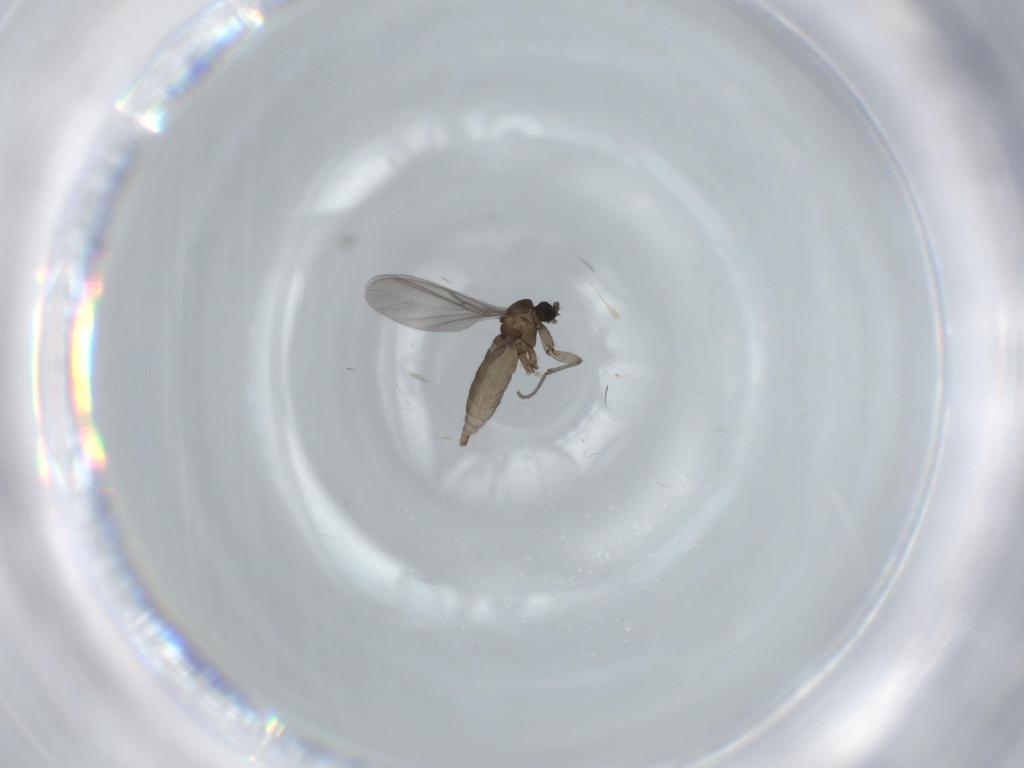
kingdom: Animalia
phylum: Arthropoda
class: Insecta
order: Diptera
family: Sciaridae
